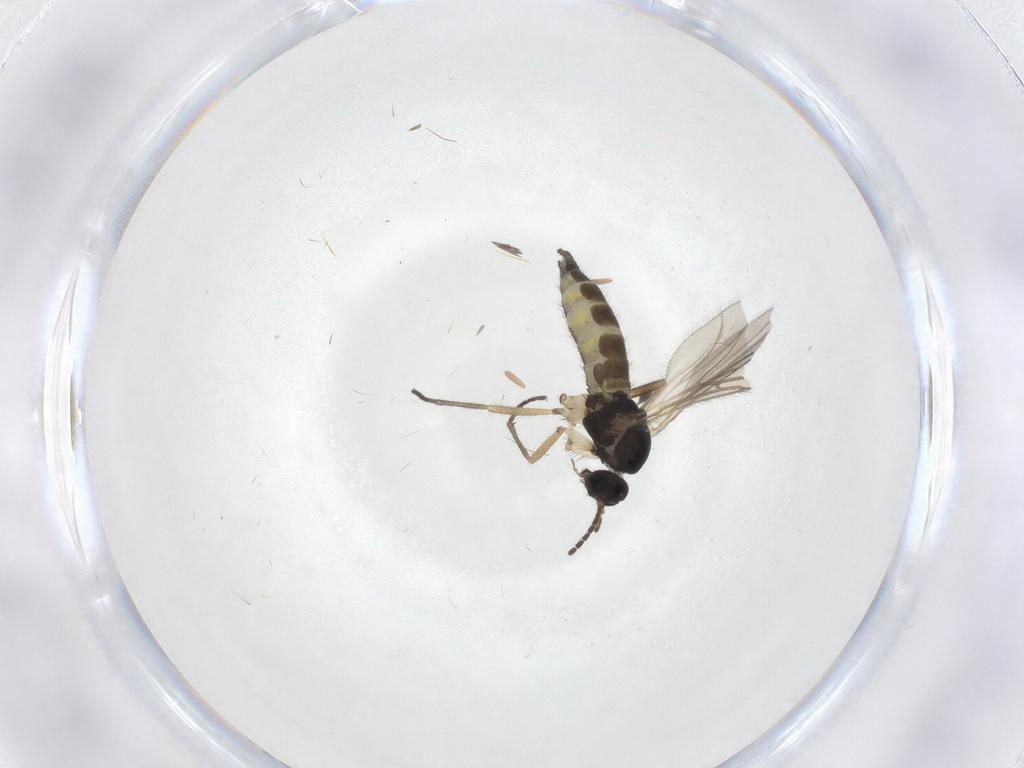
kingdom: Animalia
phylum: Arthropoda
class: Insecta
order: Diptera
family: Sciaridae
